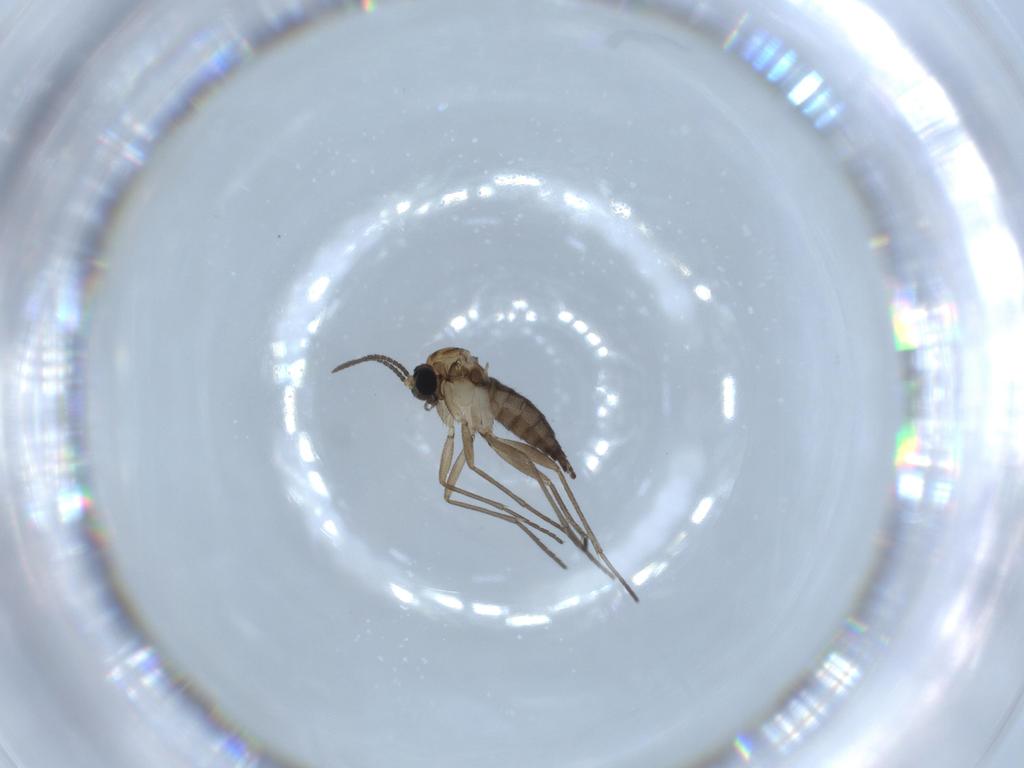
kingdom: Animalia
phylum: Arthropoda
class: Insecta
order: Diptera
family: Sciaridae
